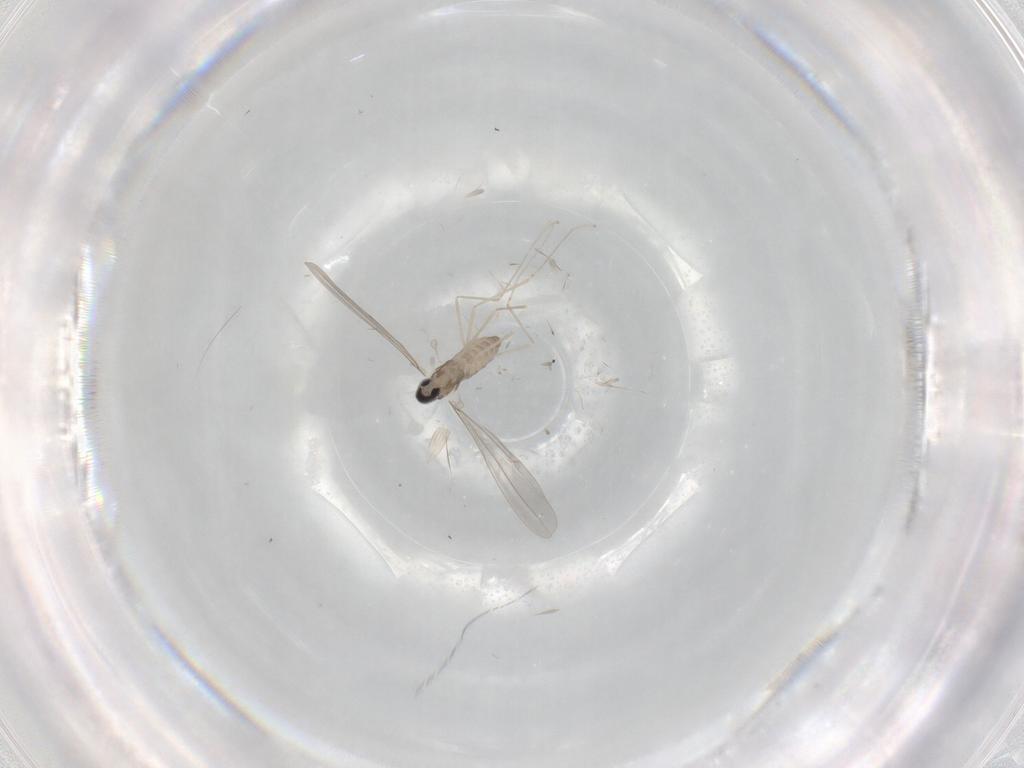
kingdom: Animalia
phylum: Arthropoda
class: Insecta
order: Diptera
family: Cecidomyiidae
